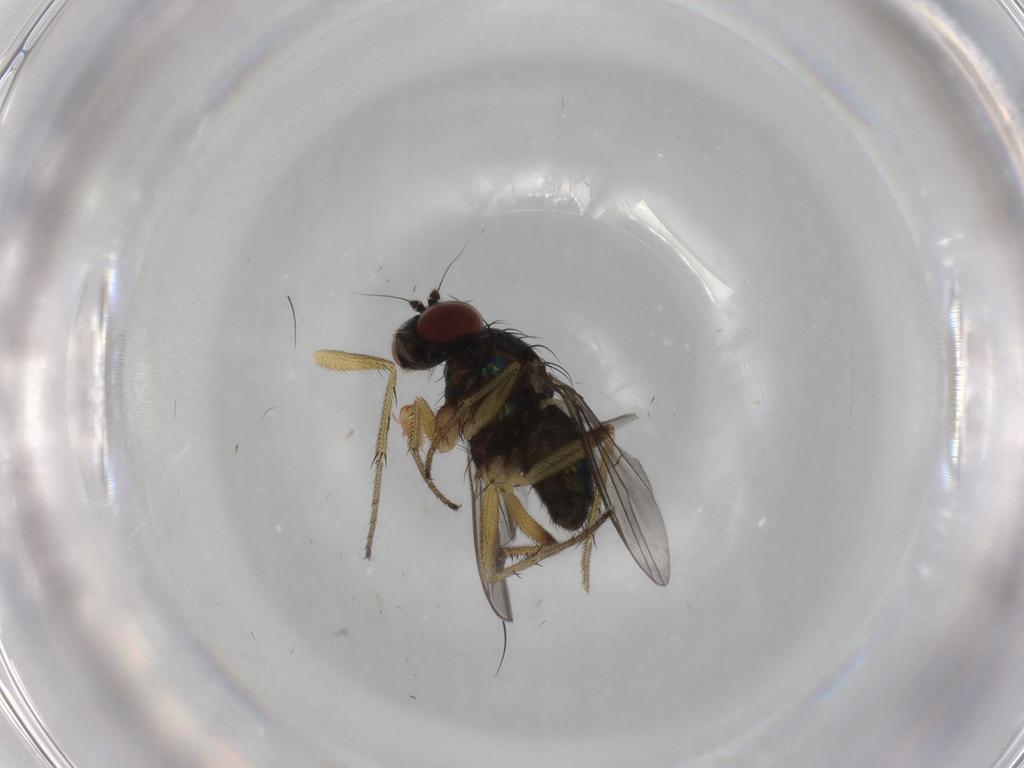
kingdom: Animalia
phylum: Arthropoda
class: Insecta
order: Diptera
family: Dolichopodidae
